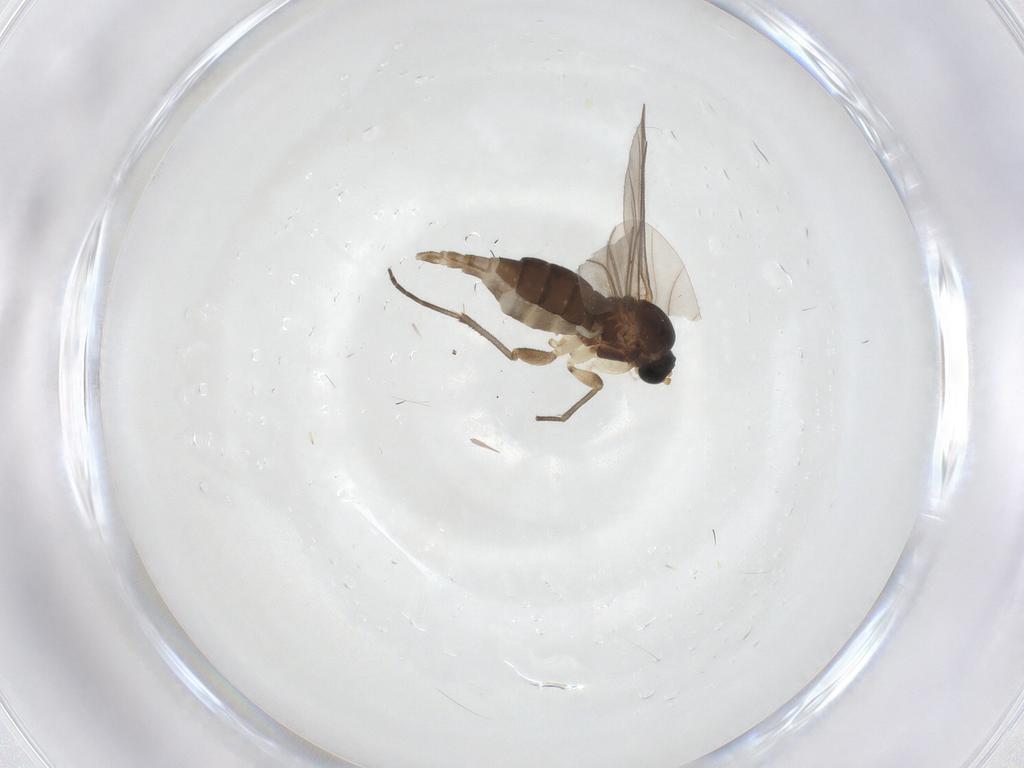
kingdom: Animalia
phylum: Arthropoda
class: Insecta
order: Diptera
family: Sciaridae
